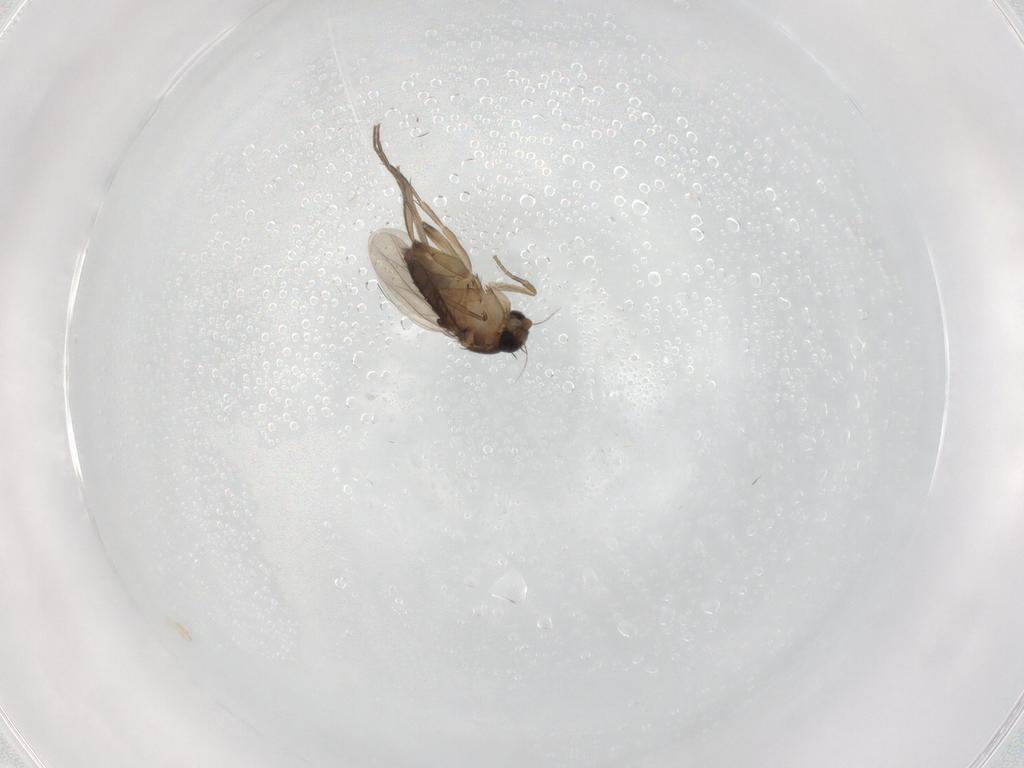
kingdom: Animalia
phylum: Arthropoda
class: Insecta
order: Diptera
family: Phoridae
